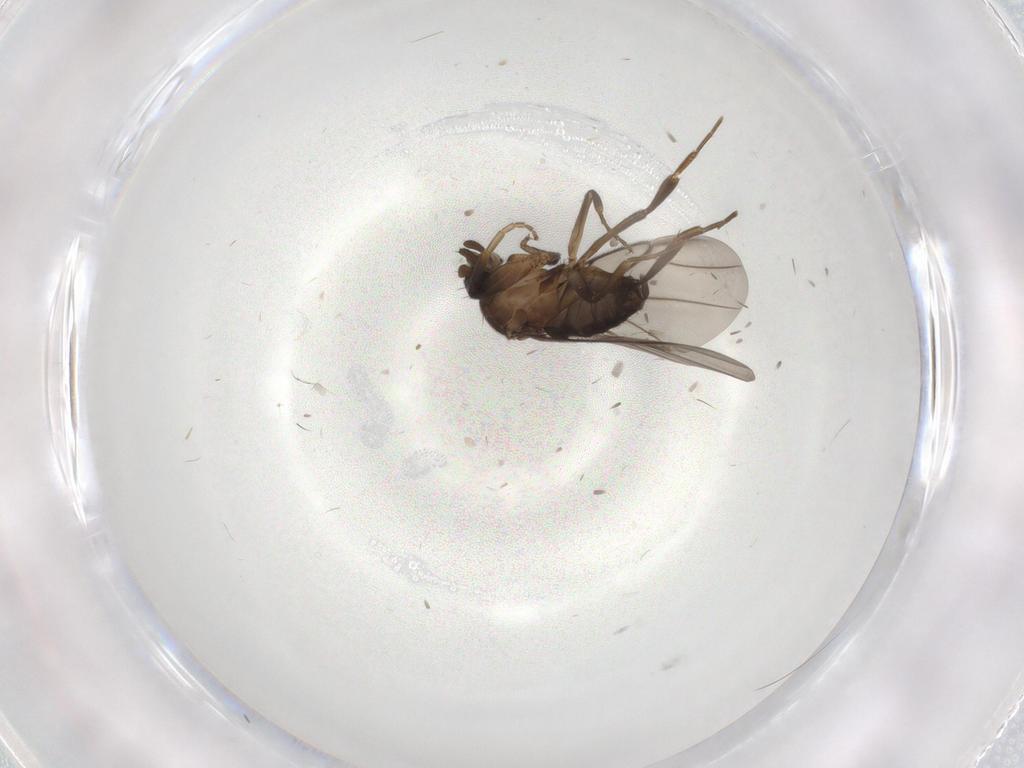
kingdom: Animalia
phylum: Arthropoda
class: Insecta
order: Diptera
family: Phoridae
